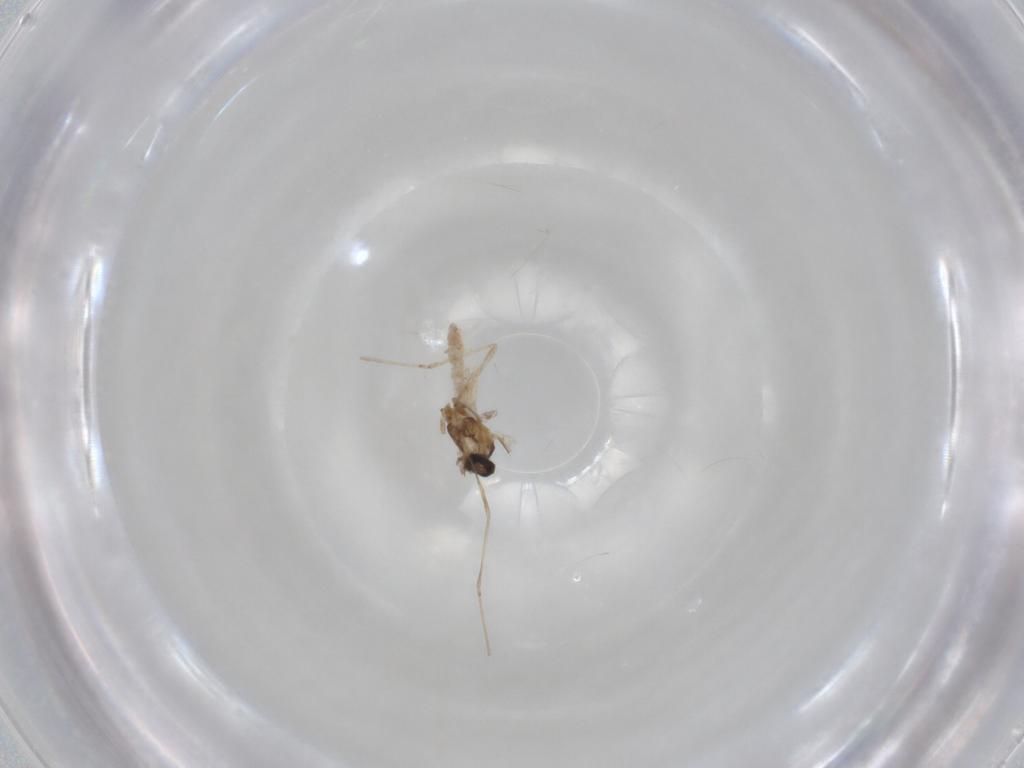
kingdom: Animalia
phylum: Arthropoda
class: Insecta
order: Diptera
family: Cecidomyiidae
